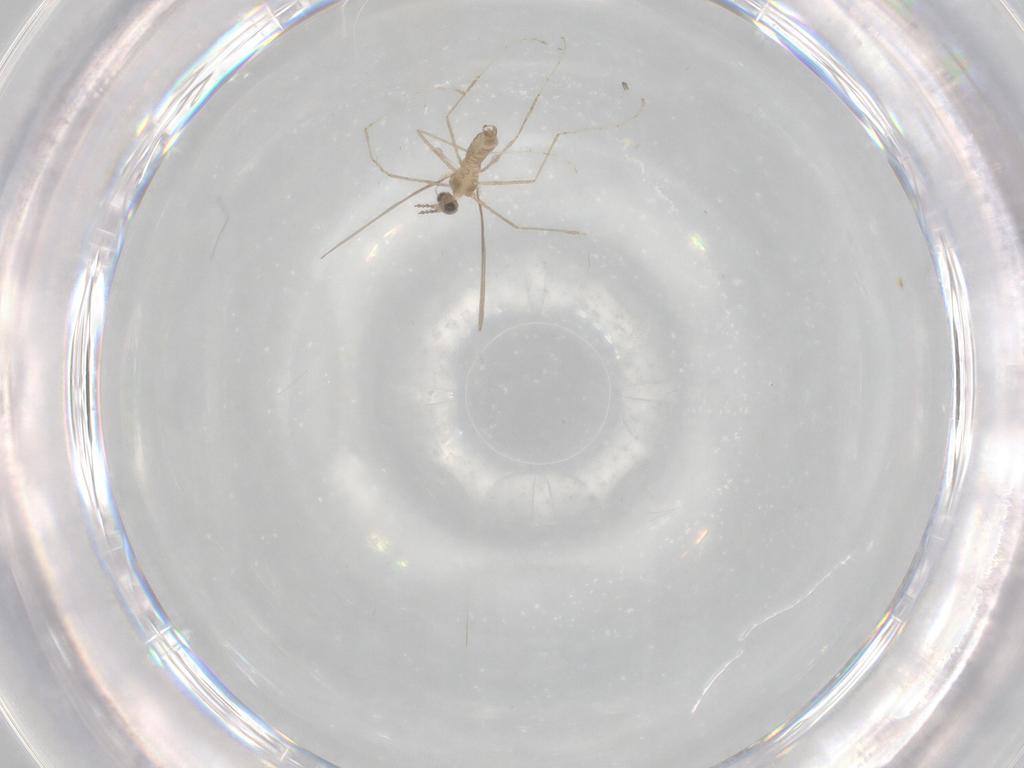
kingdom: Animalia
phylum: Arthropoda
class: Insecta
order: Diptera
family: Cecidomyiidae
